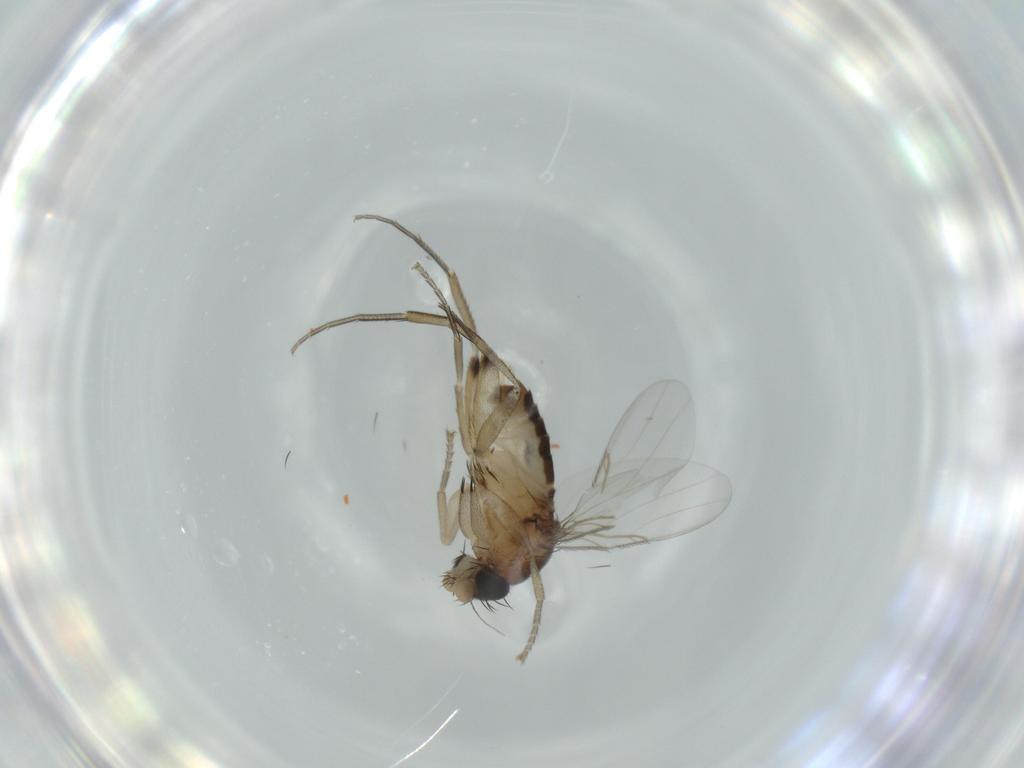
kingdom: Animalia
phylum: Arthropoda
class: Insecta
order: Diptera
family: Phoridae
